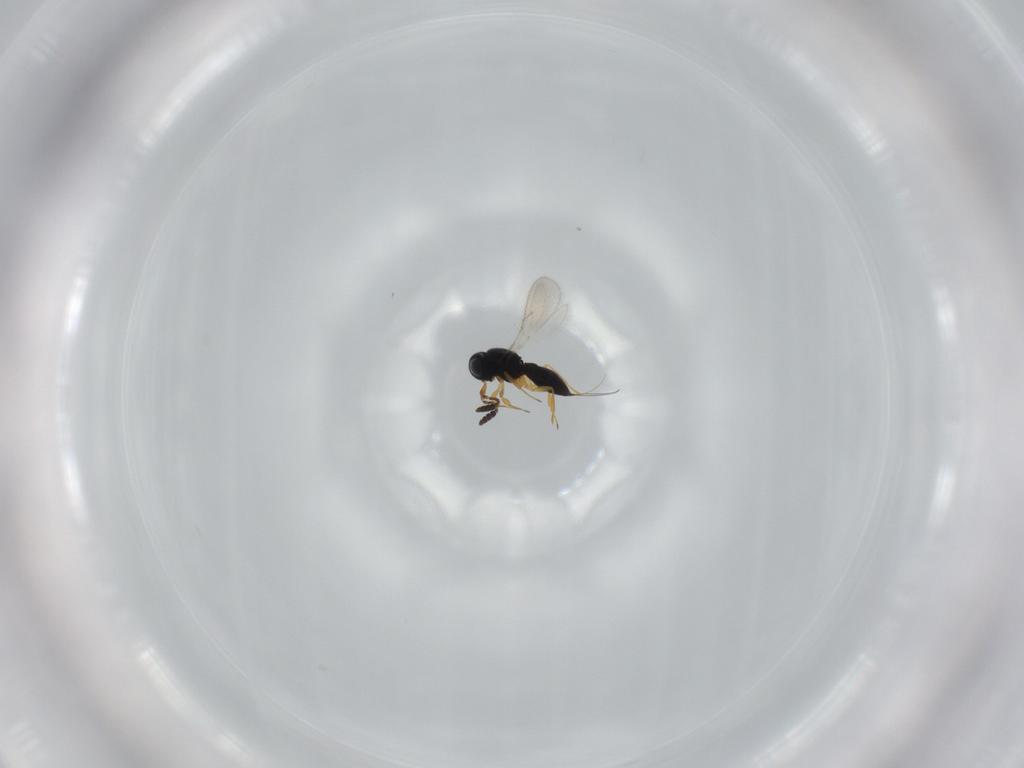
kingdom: Animalia
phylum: Arthropoda
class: Insecta
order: Hymenoptera
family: Scelionidae
